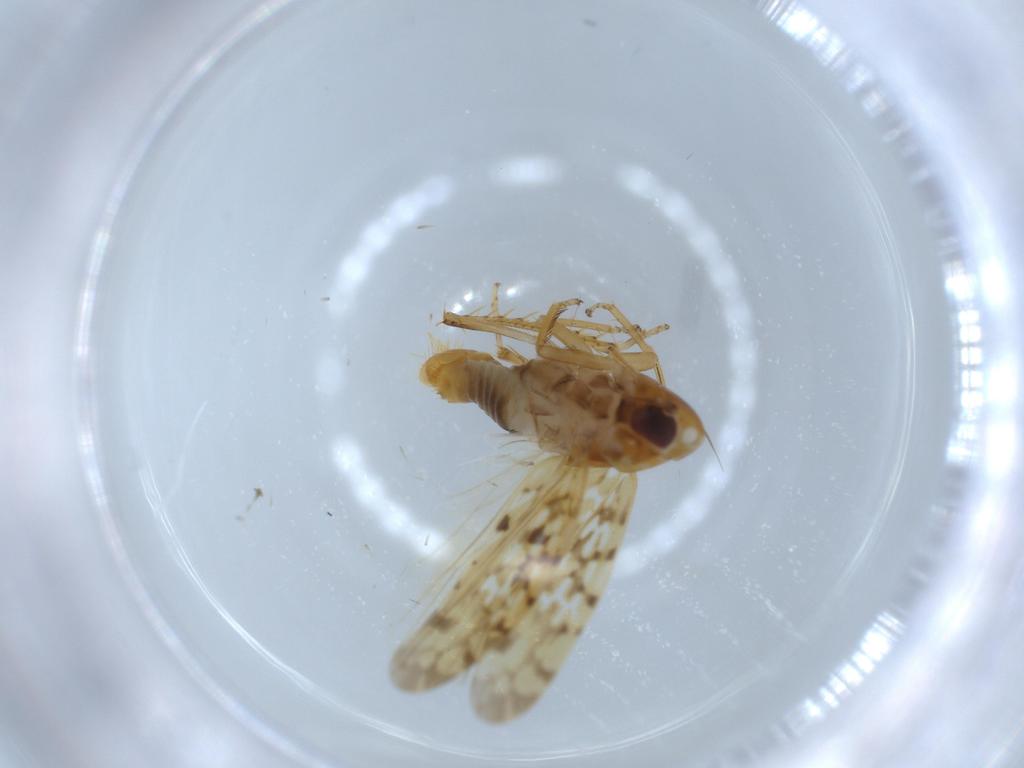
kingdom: Animalia
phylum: Arthropoda
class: Insecta
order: Hemiptera
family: Cicadellidae
